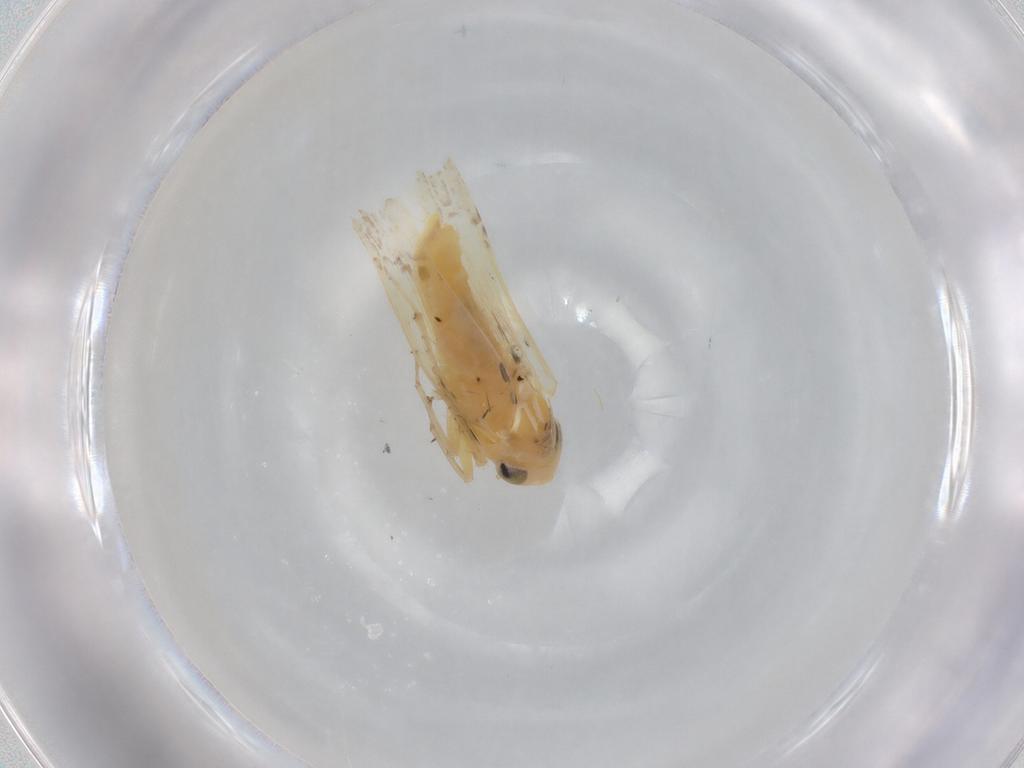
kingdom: Animalia
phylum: Arthropoda
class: Insecta
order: Hemiptera
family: Cicadellidae
